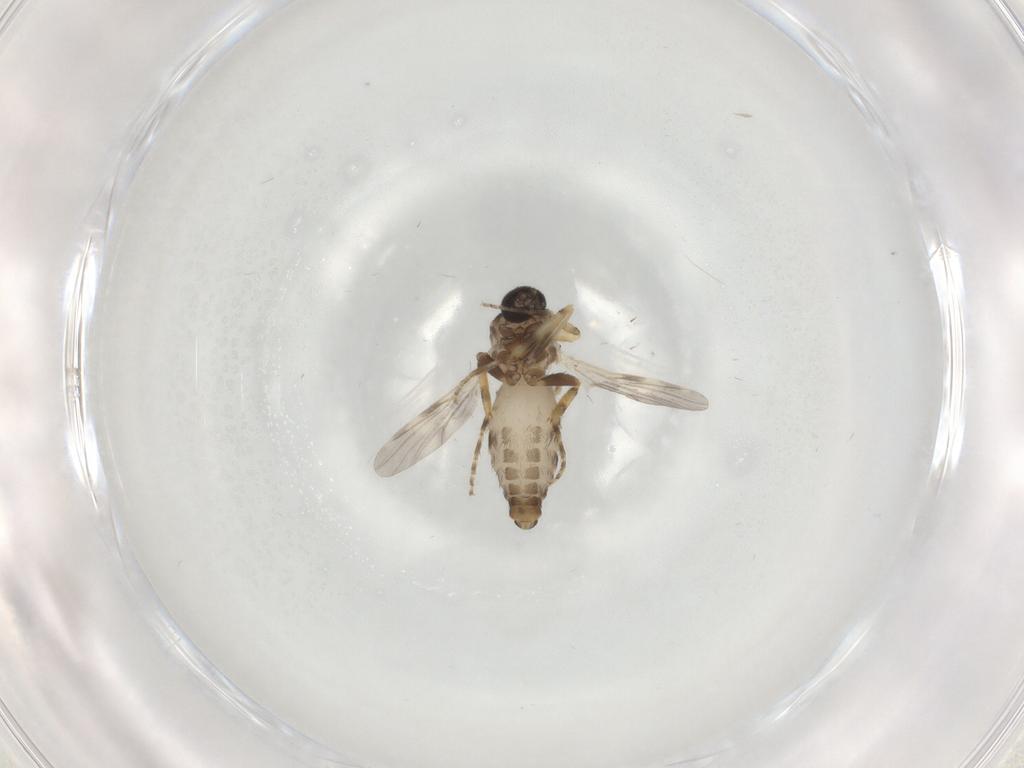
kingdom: Animalia
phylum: Arthropoda
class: Insecta
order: Diptera
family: Ceratopogonidae
